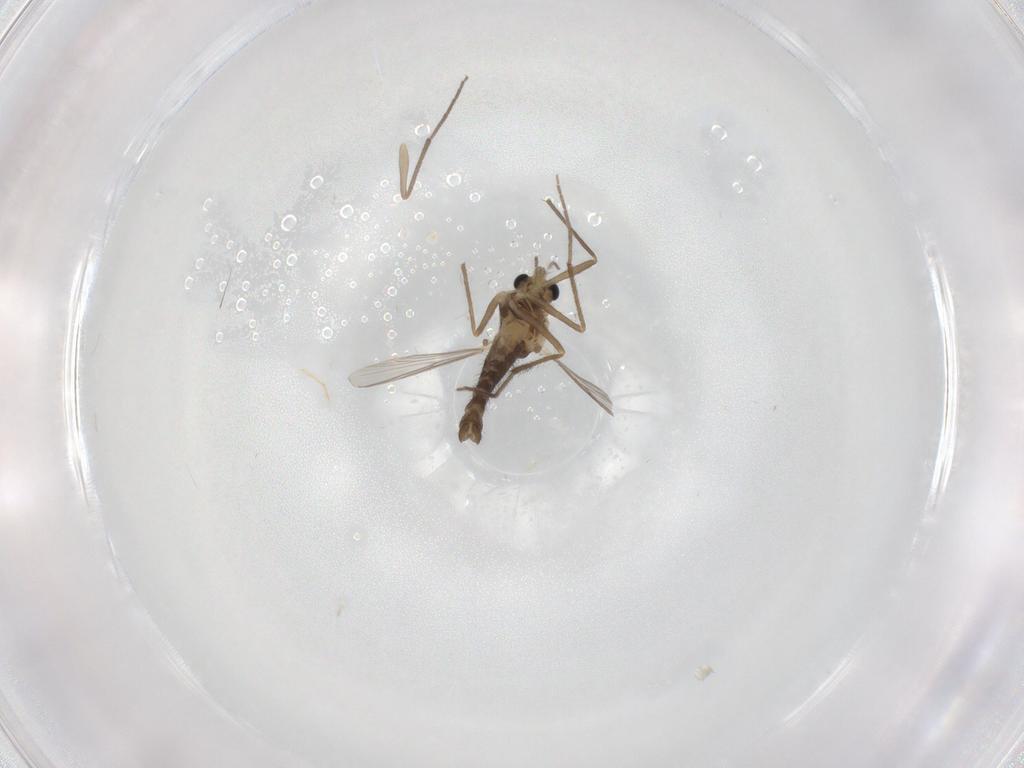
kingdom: Animalia
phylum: Arthropoda
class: Insecta
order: Diptera
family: Chironomidae
